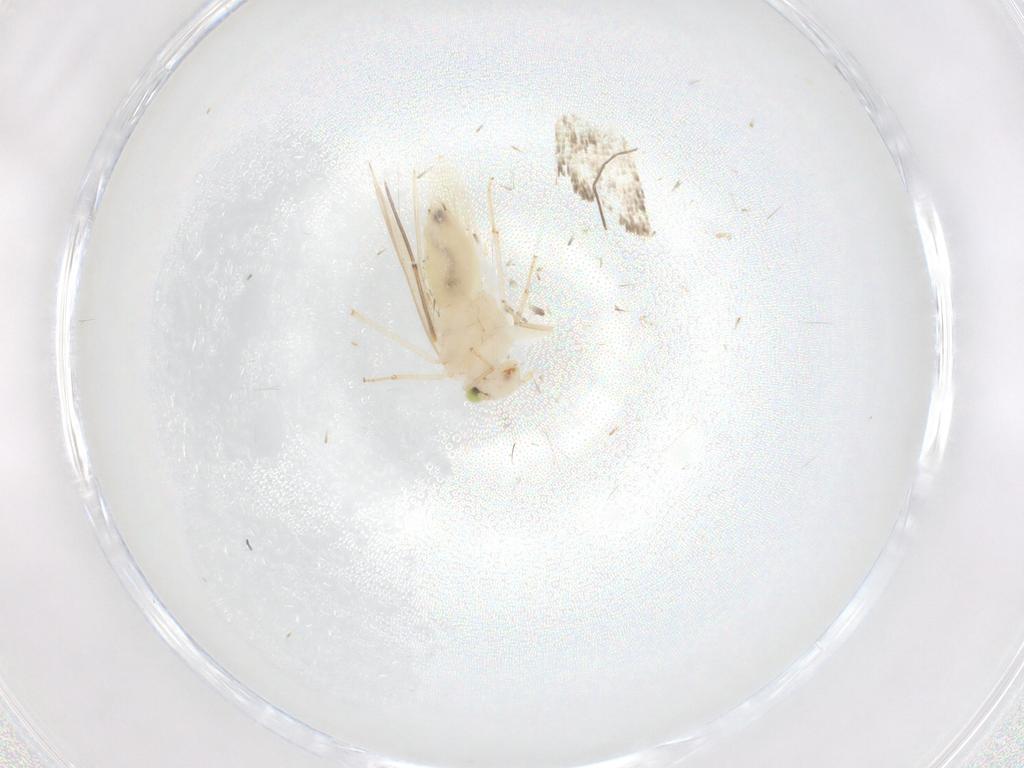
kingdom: Animalia
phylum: Arthropoda
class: Insecta
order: Psocodea
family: Lepidopsocidae
